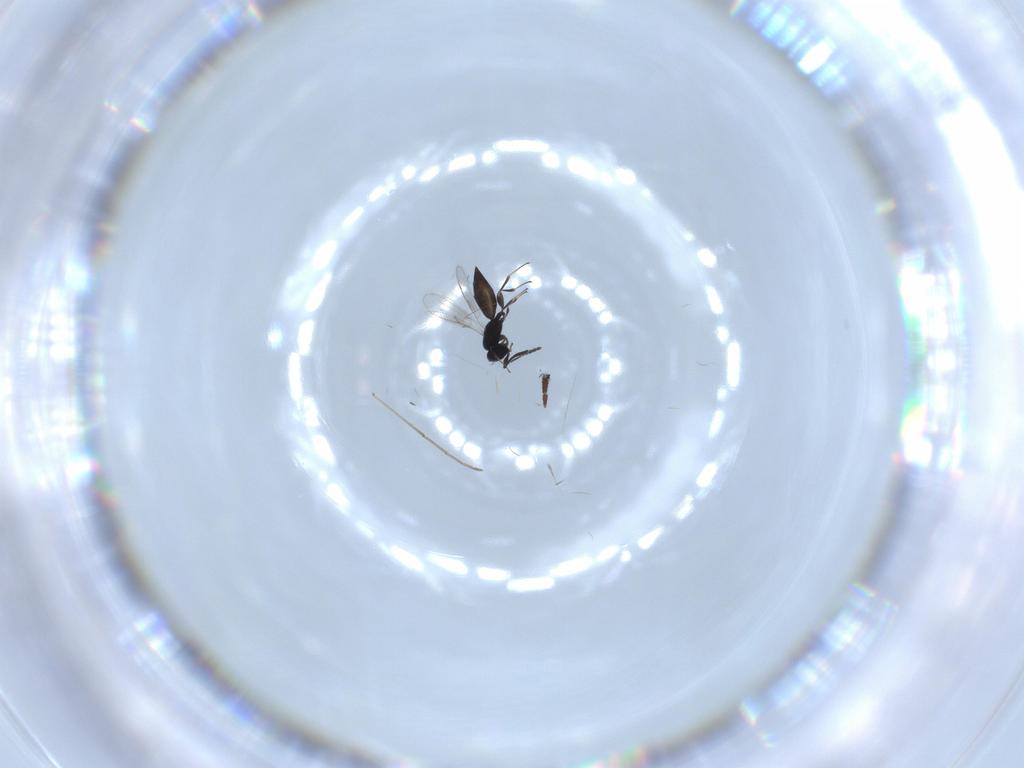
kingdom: Animalia
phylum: Arthropoda
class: Insecta
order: Hymenoptera
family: Scelionidae
